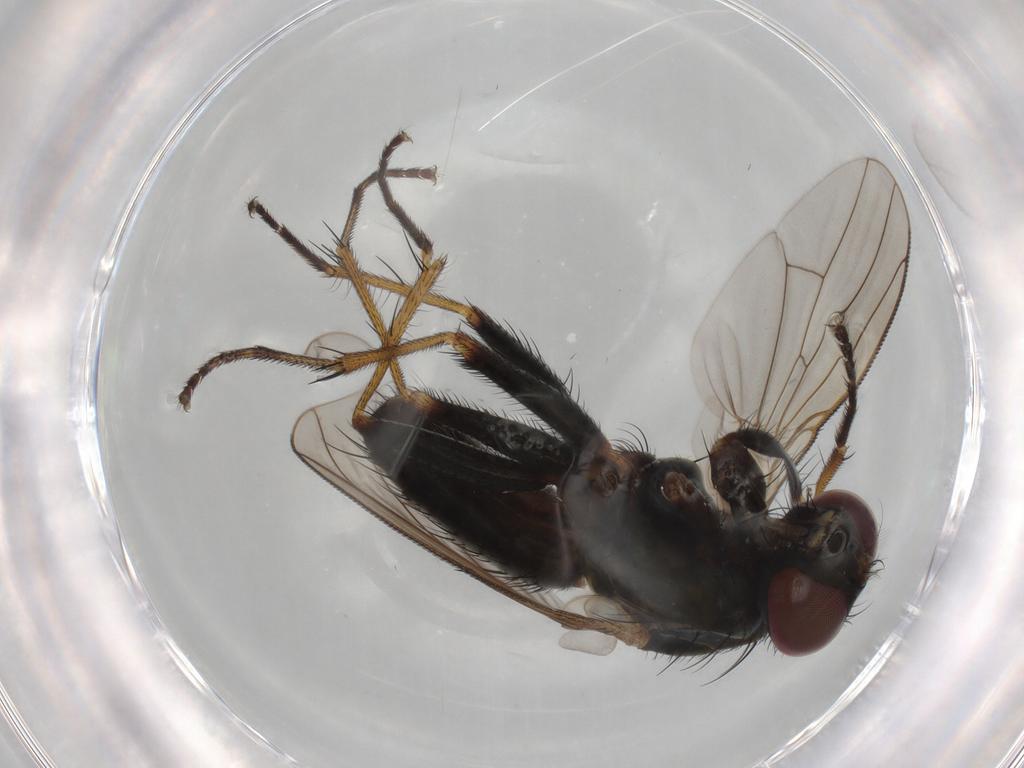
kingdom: Animalia
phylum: Arthropoda
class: Insecta
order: Diptera
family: Muscidae
